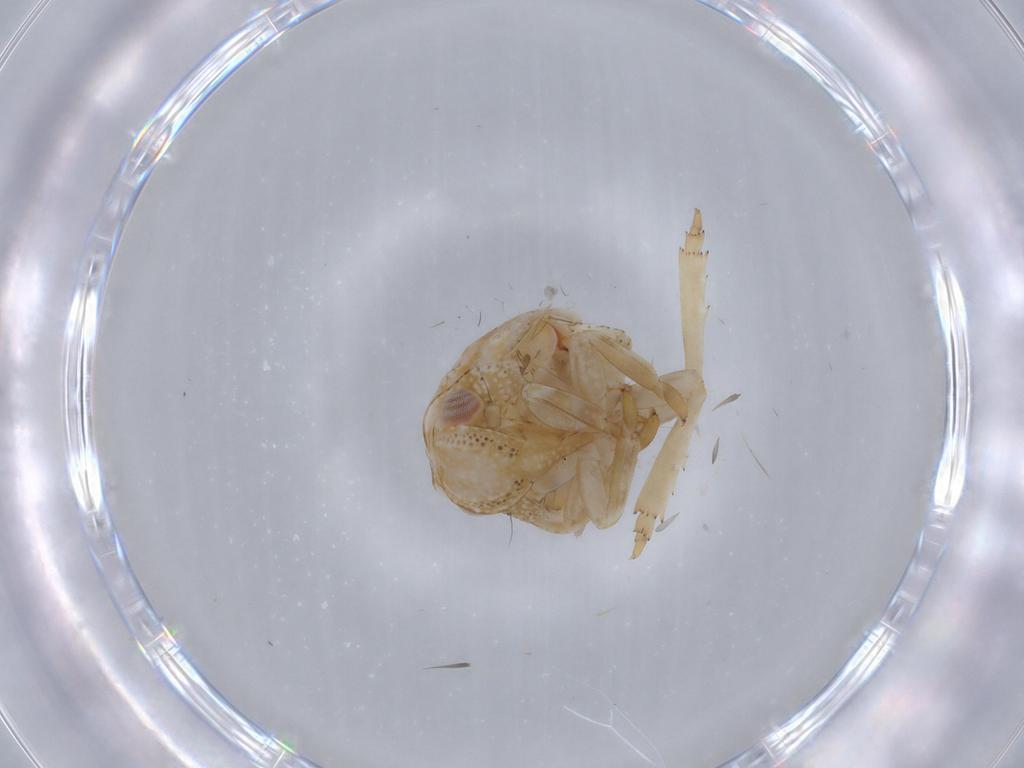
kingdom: Animalia
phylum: Arthropoda
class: Insecta
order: Hemiptera
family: Acanaloniidae
